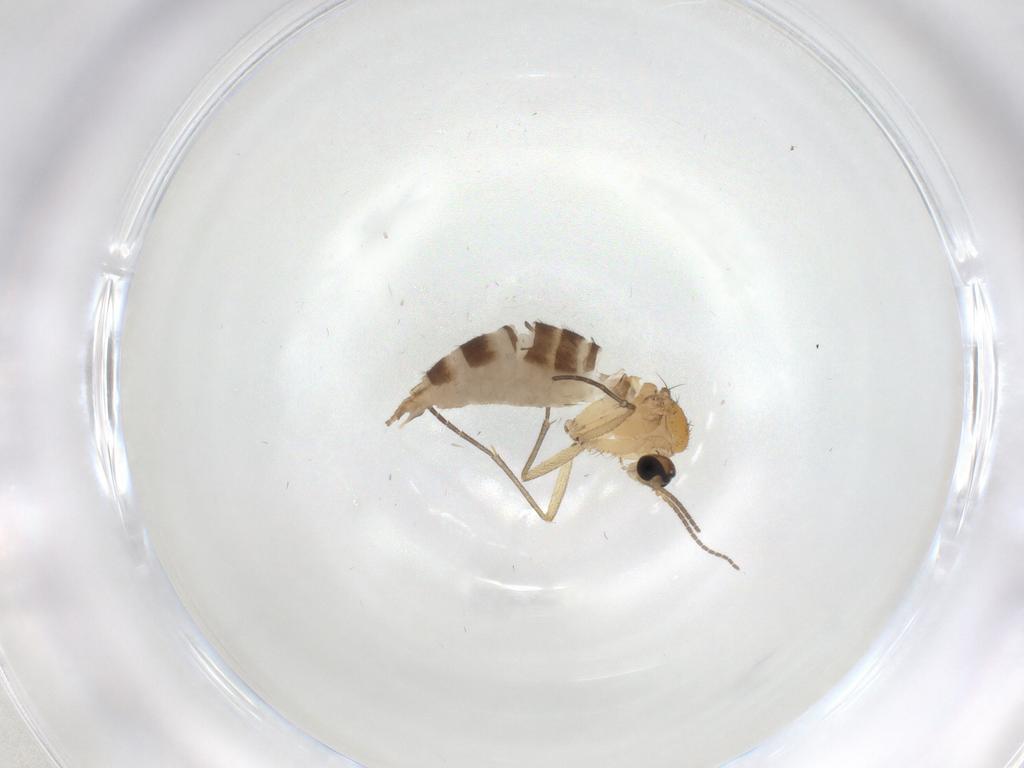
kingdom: Animalia
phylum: Arthropoda
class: Insecta
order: Diptera
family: Sciaridae
